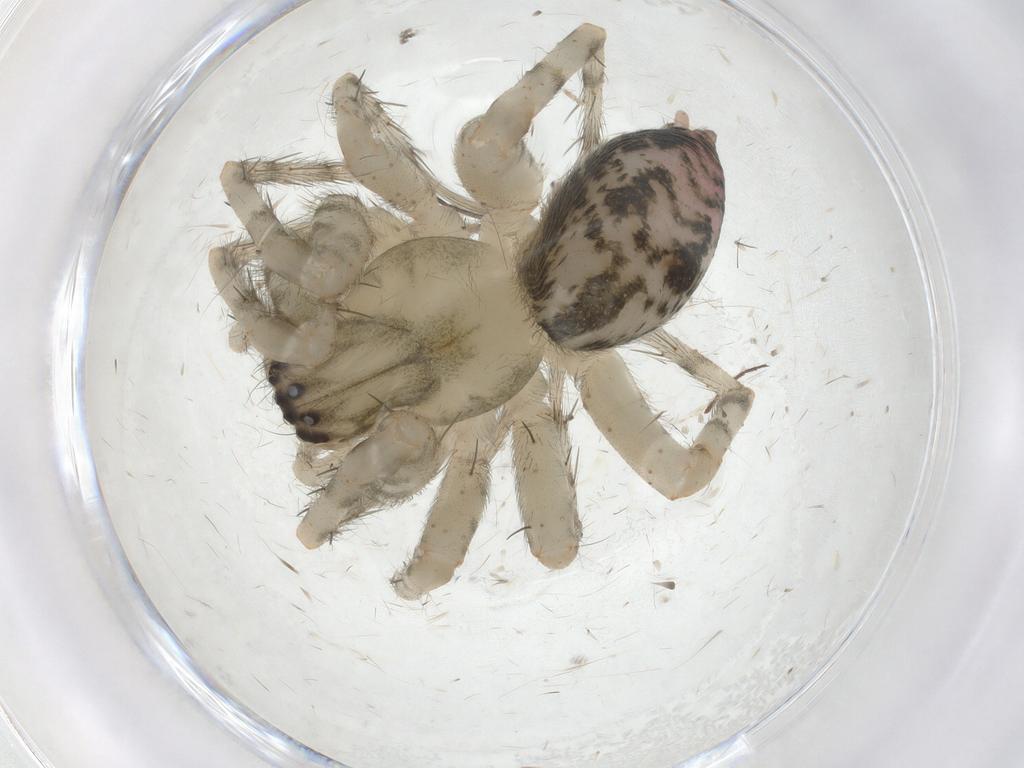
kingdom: Animalia
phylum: Arthropoda
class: Arachnida
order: Araneae
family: Anyphaenidae
